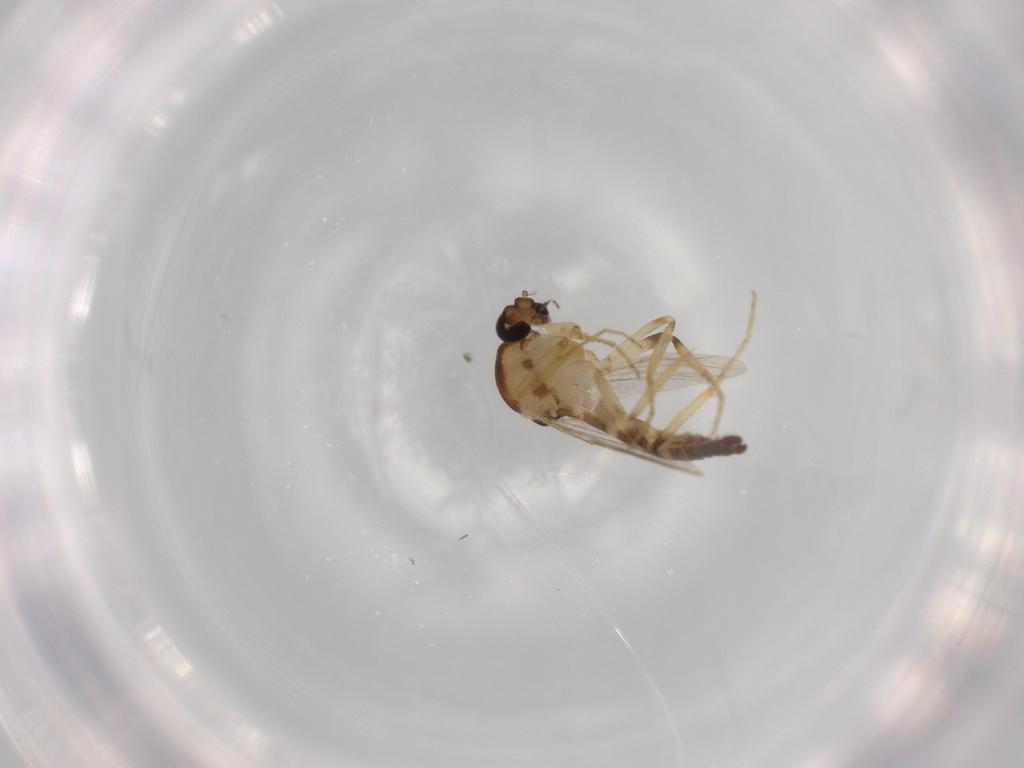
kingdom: Animalia
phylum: Arthropoda
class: Insecta
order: Diptera
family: Ceratopogonidae
